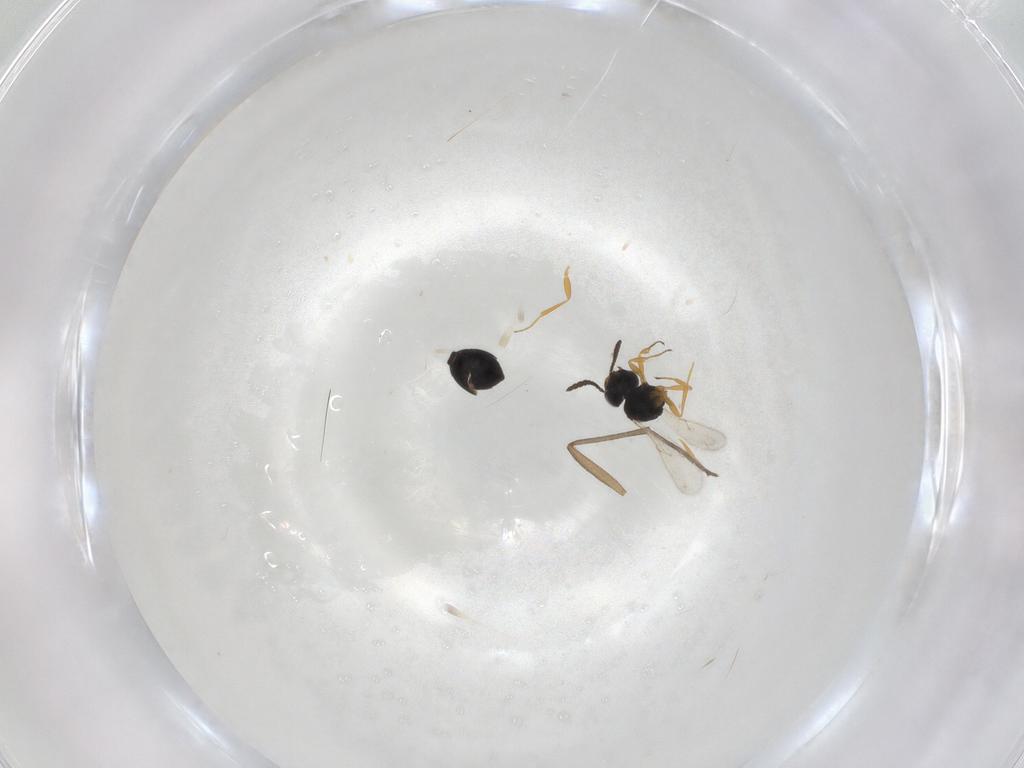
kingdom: Animalia
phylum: Arthropoda
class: Insecta
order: Hymenoptera
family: Scelionidae
